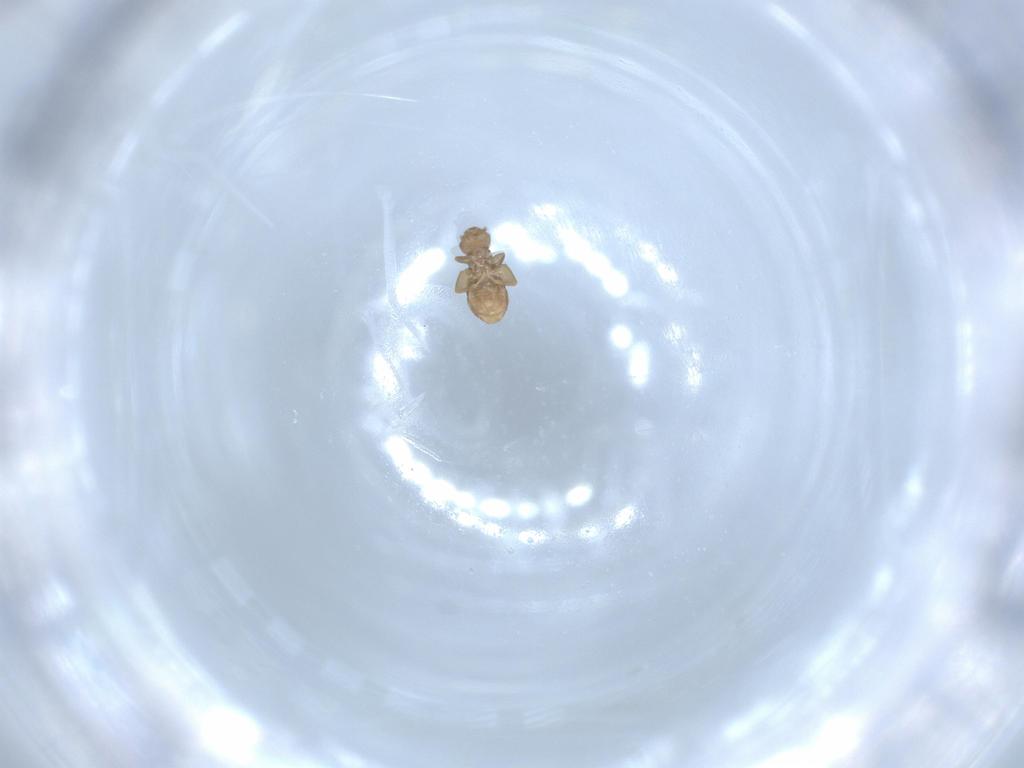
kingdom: Animalia
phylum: Arthropoda
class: Insecta
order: Psocodea
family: Liposcelididae
